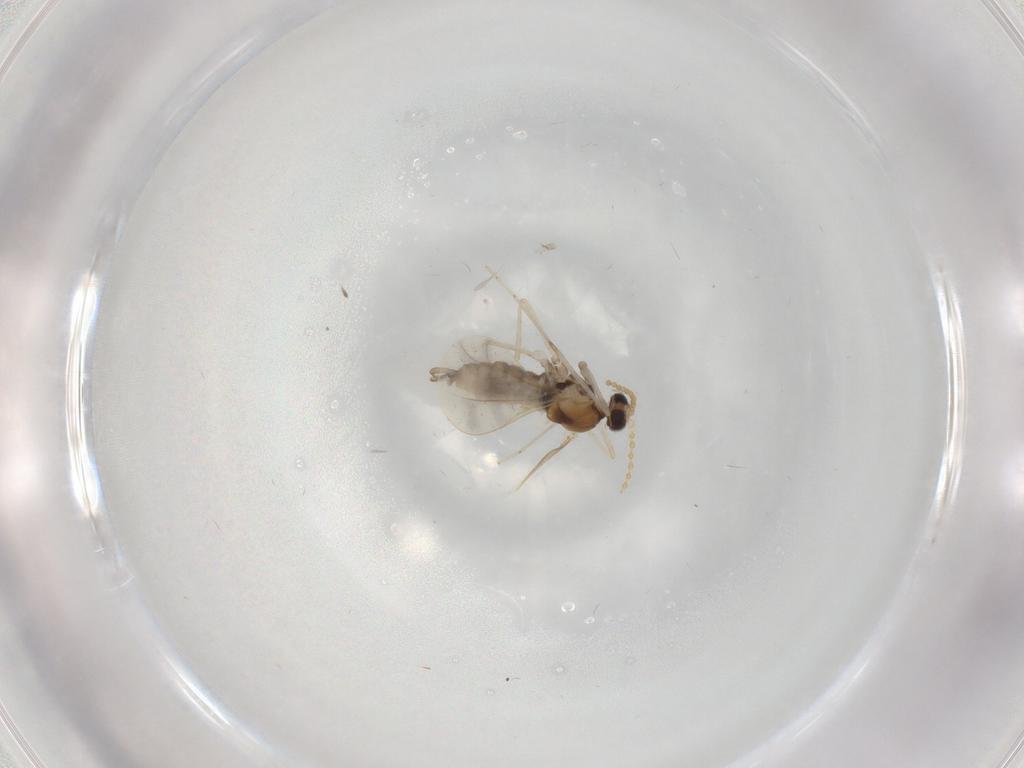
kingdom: Animalia
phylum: Arthropoda
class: Insecta
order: Diptera
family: Cecidomyiidae
